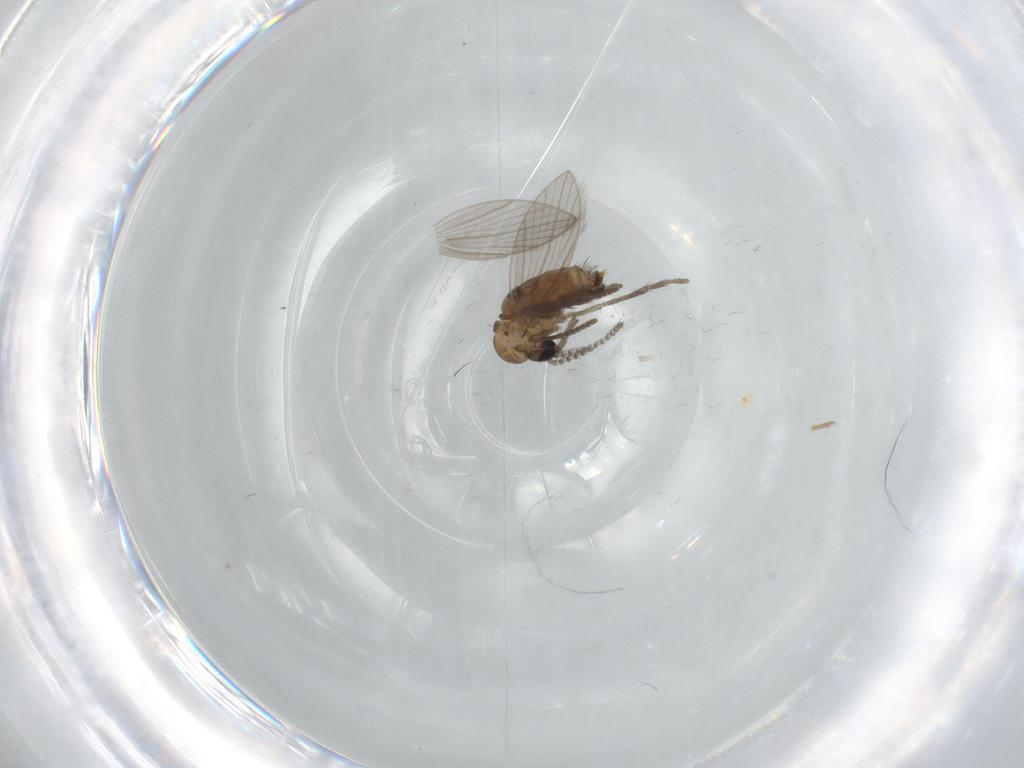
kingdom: Animalia
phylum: Arthropoda
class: Insecta
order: Diptera
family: Psychodidae
